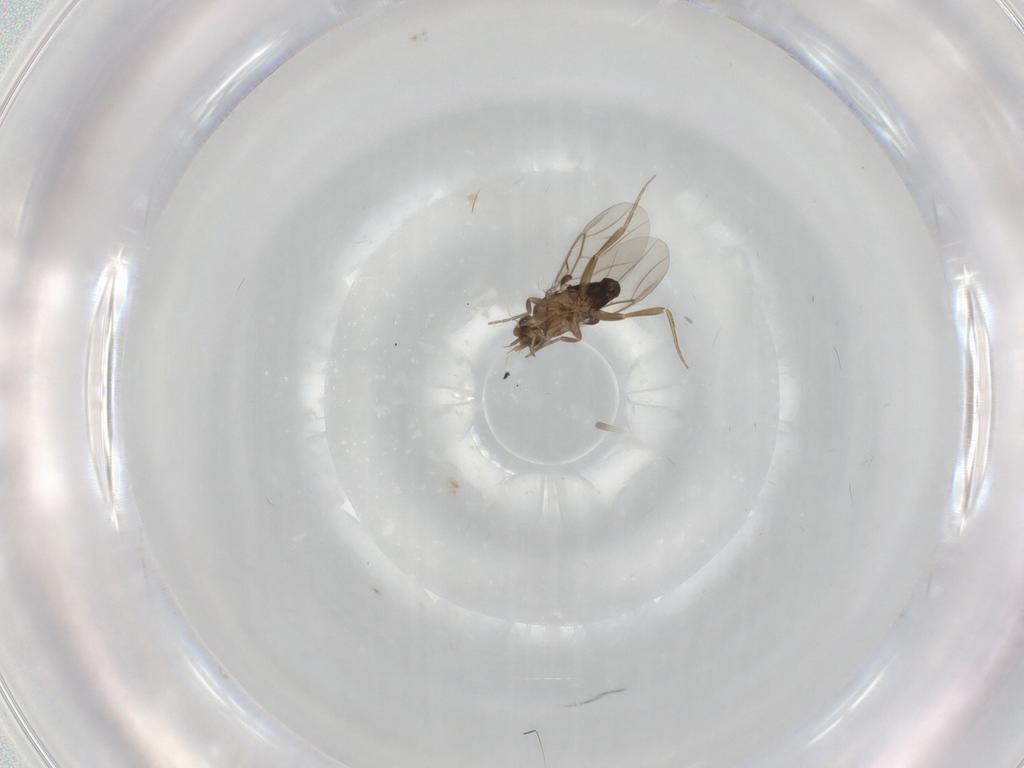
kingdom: Animalia
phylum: Arthropoda
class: Insecta
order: Diptera
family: Phoridae
